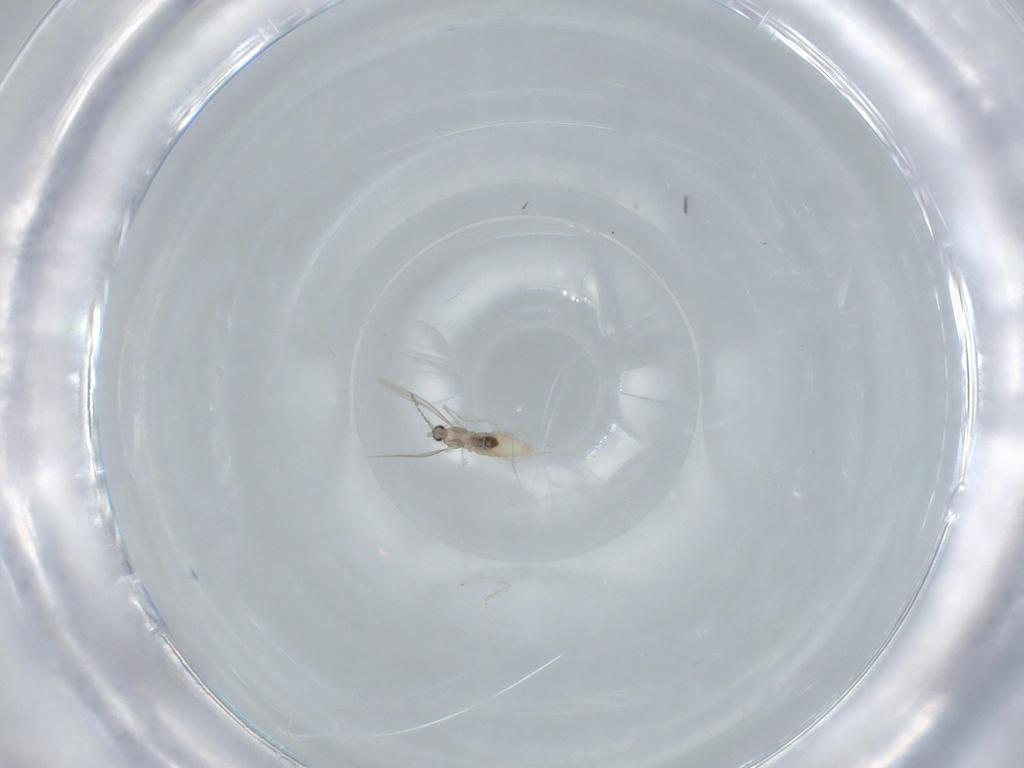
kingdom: Animalia
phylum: Arthropoda
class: Insecta
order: Diptera
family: Cecidomyiidae
